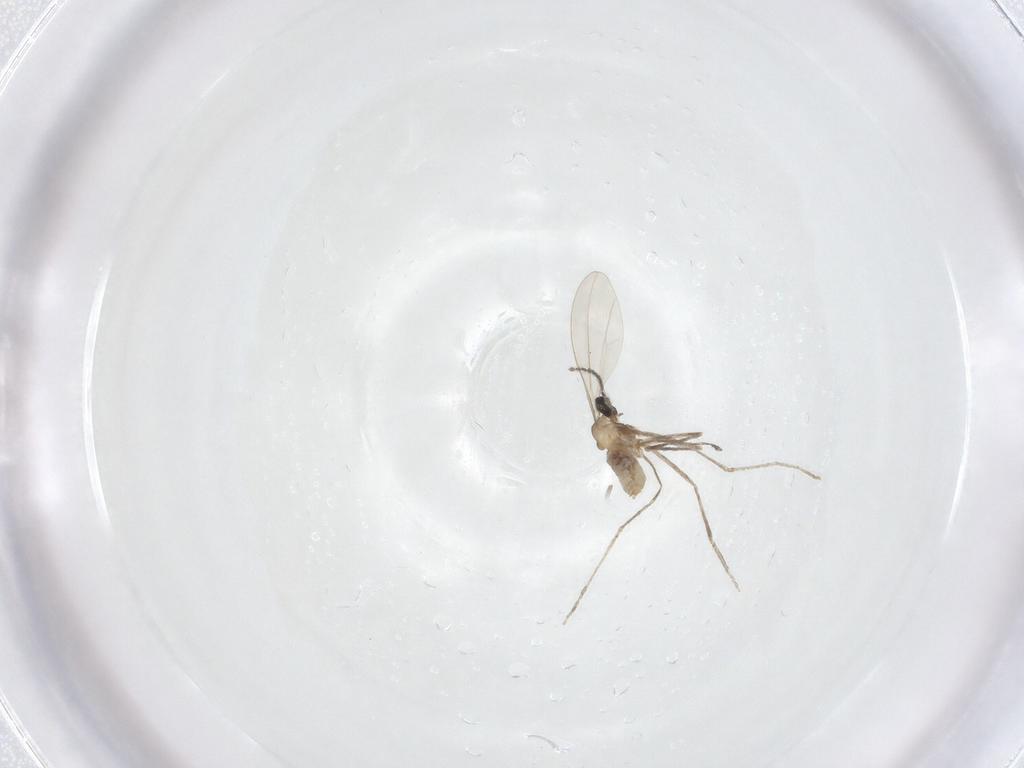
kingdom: Animalia
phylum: Arthropoda
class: Insecta
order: Diptera
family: Cecidomyiidae
